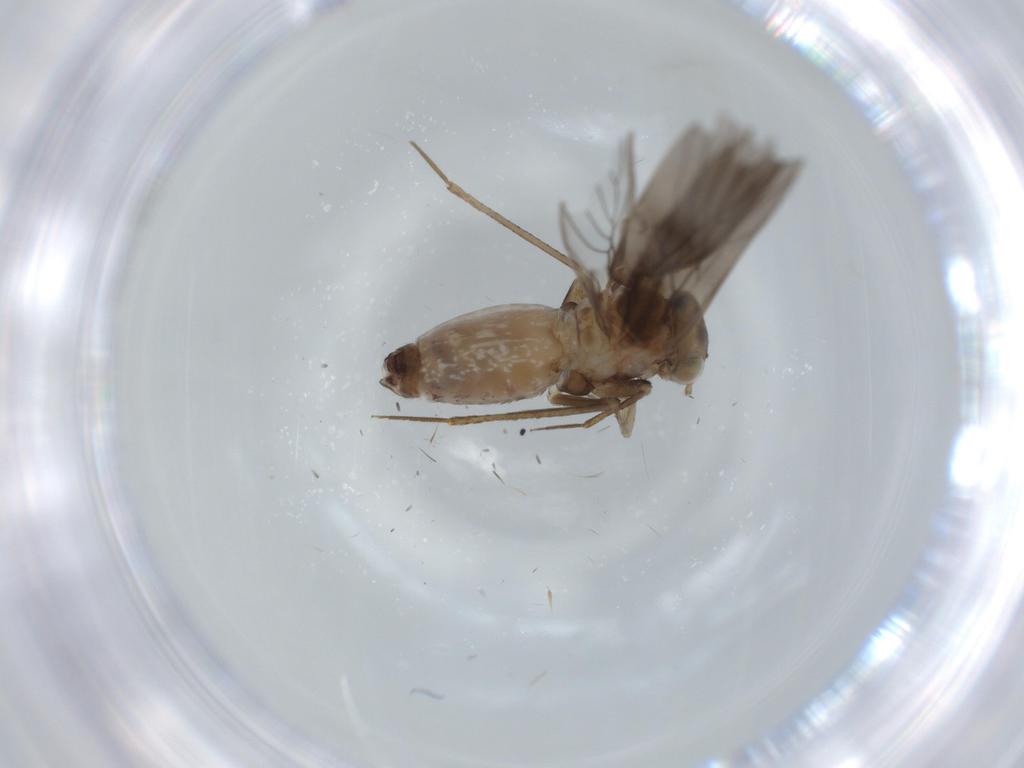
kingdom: Animalia
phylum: Arthropoda
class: Insecta
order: Psocodea
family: Lepidopsocidae
